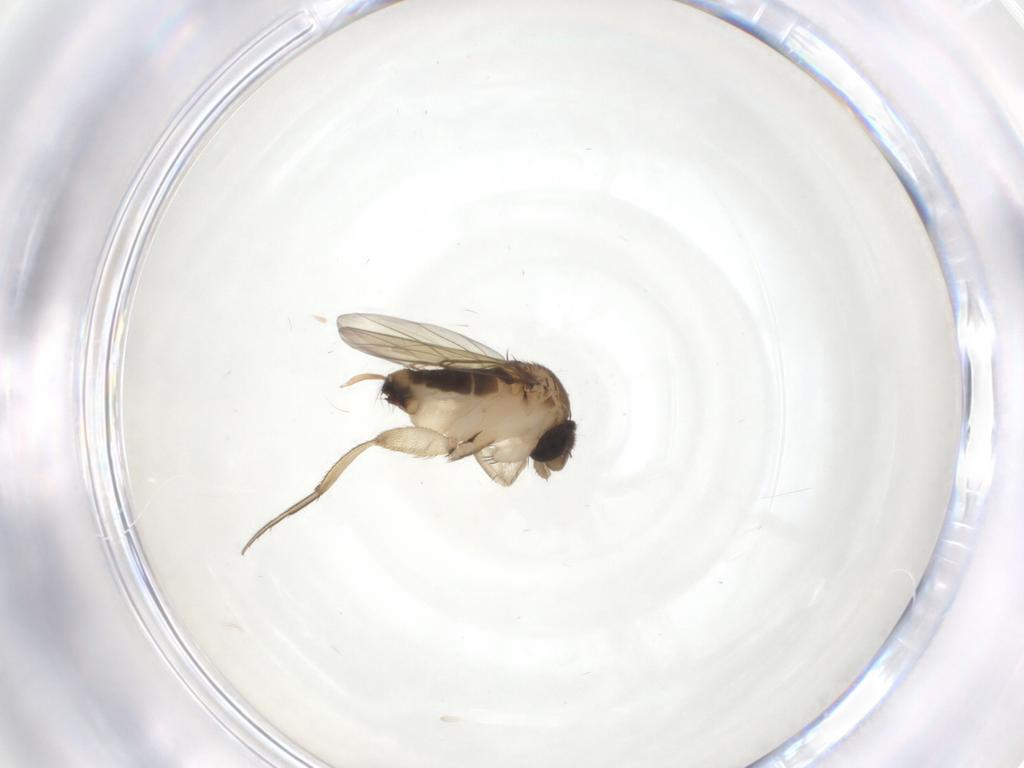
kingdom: Animalia
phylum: Arthropoda
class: Insecta
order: Diptera
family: Phoridae
